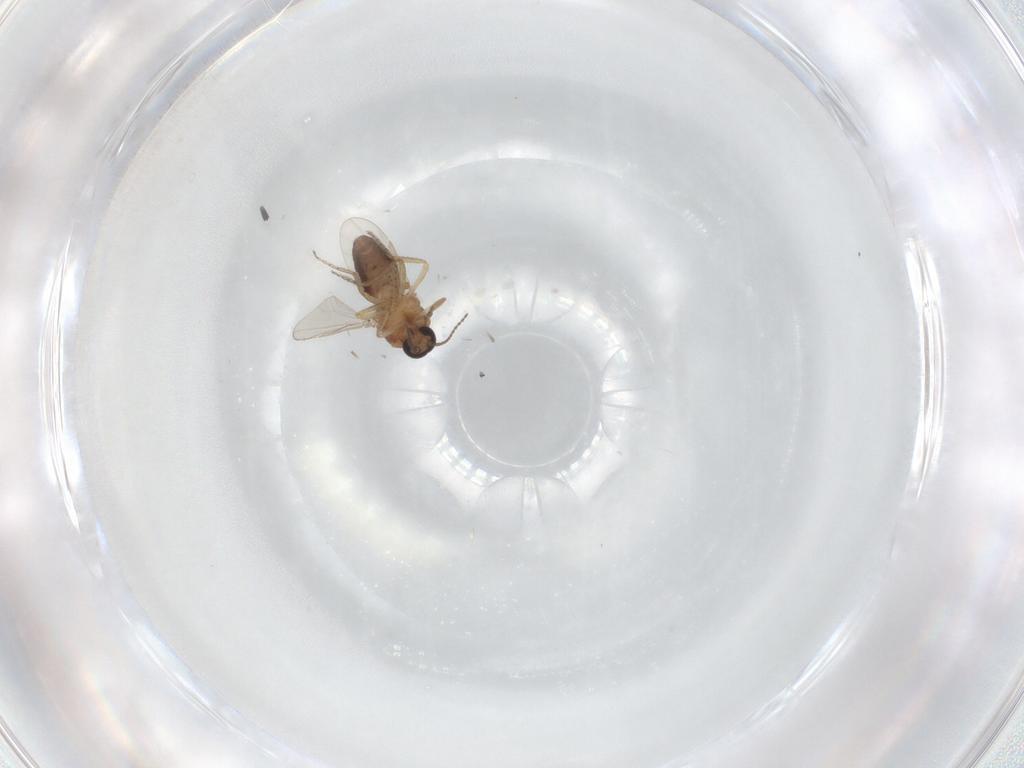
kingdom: Animalia
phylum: Arthropoda
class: Insecta
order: Diptera
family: Ceratopogonidae
